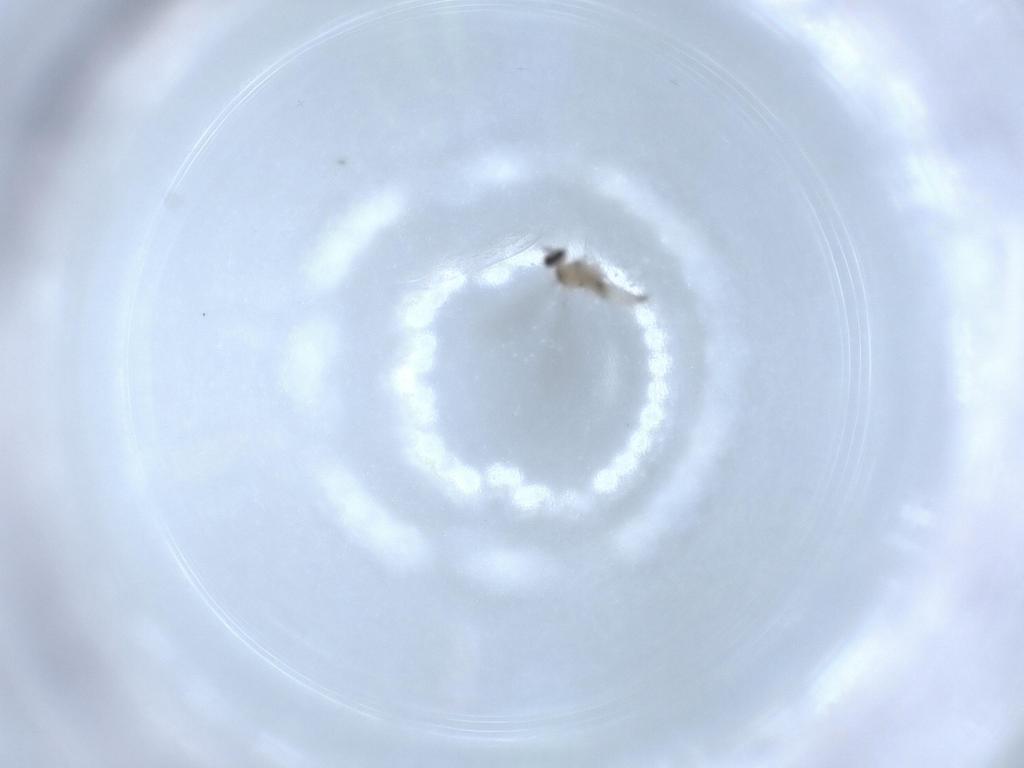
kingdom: Animalia
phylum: Arthropoda
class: Insecta
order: Diptera
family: Cecidomyiidae
